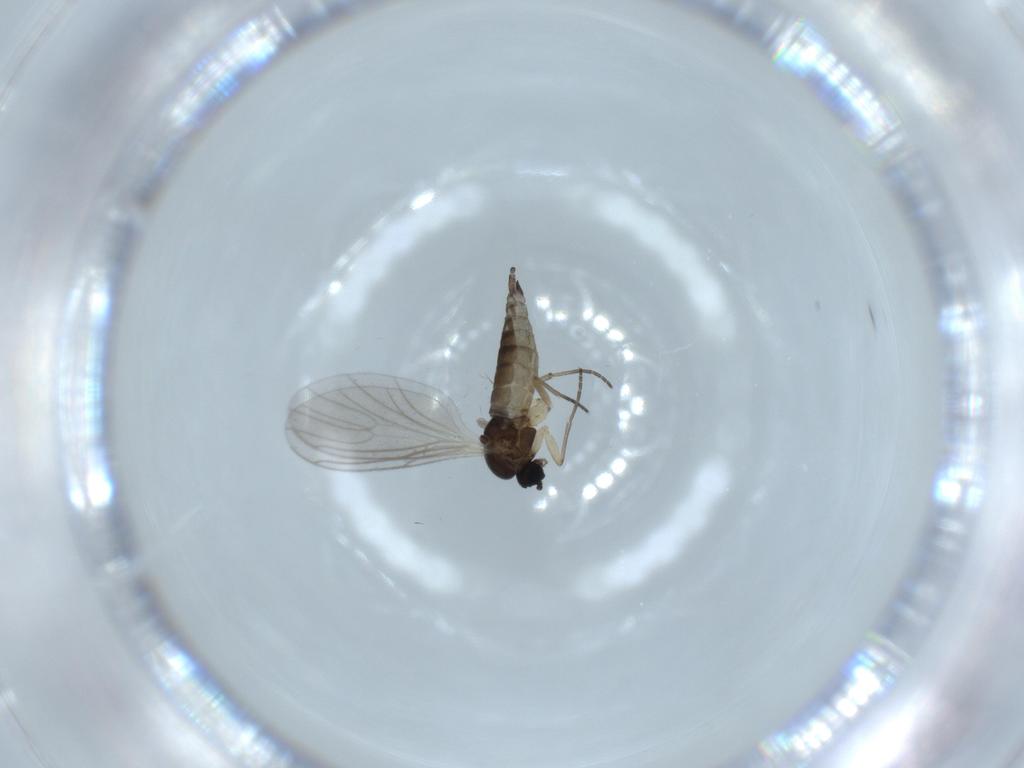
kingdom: Animalia
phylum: Arthropoda
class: Insecta
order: Diptera
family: Sciaridae
